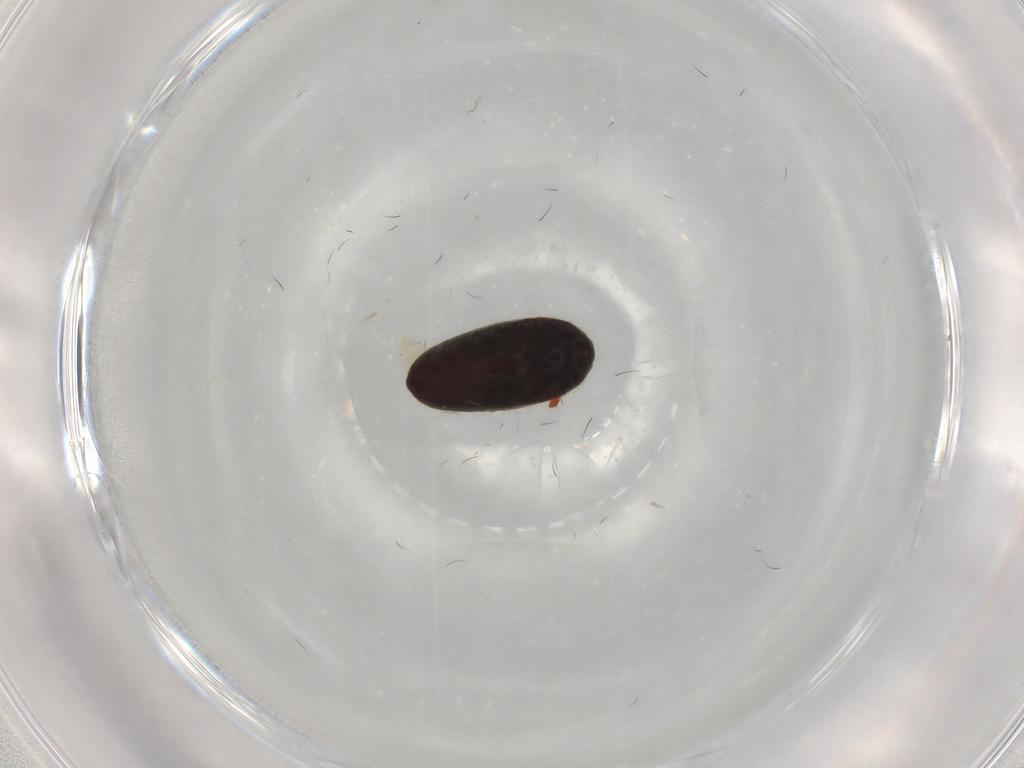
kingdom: Animalia
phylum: Arthropoda
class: Insecta
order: Coleoptera
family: Throscidae
